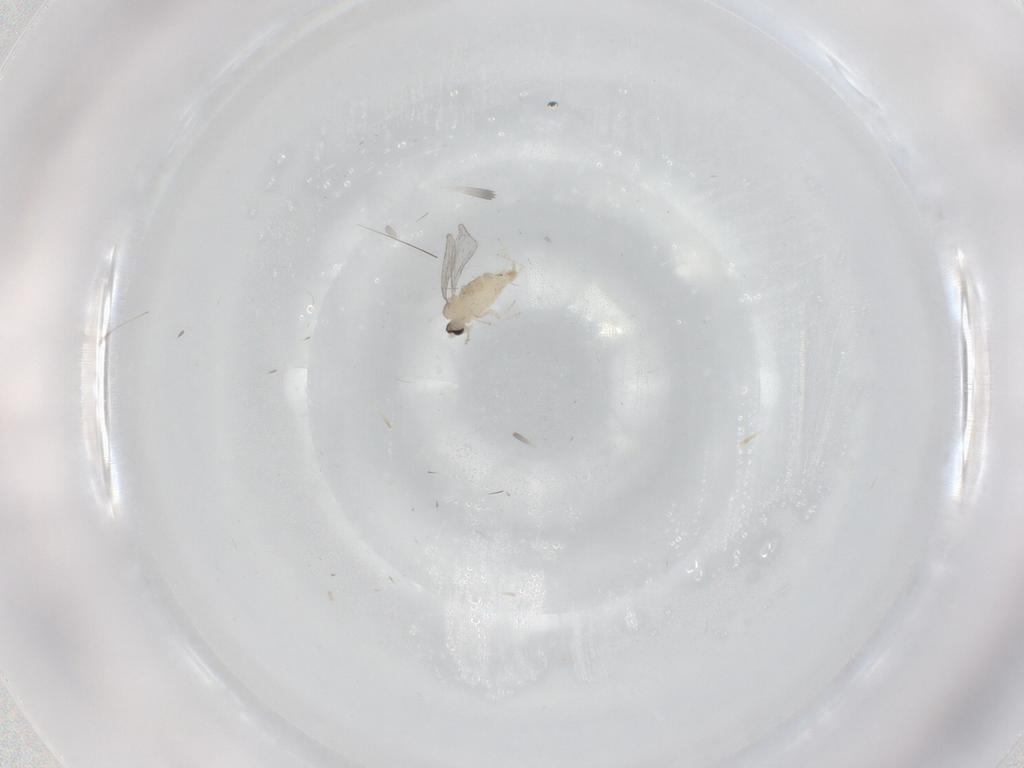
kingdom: Animalia
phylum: Arthropoda
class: Insecta
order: Diptera
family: Cecidomyiidae
